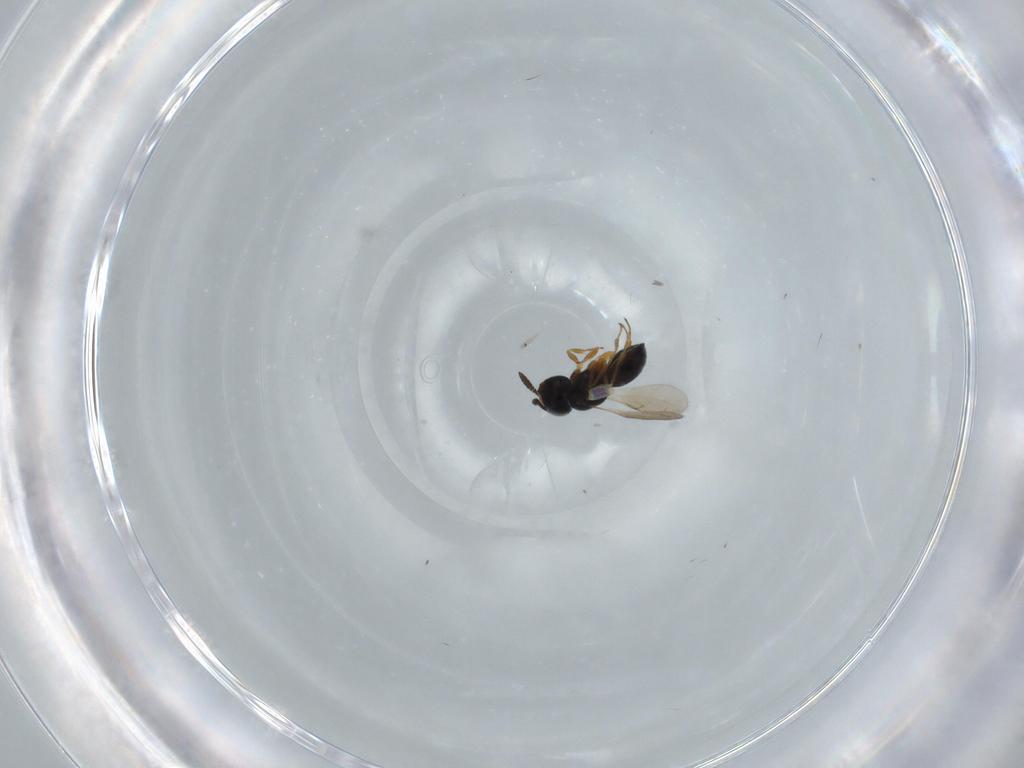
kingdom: Animalia
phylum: Arthropoda
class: Insecta
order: Hymenoptera
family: Scelionidae
